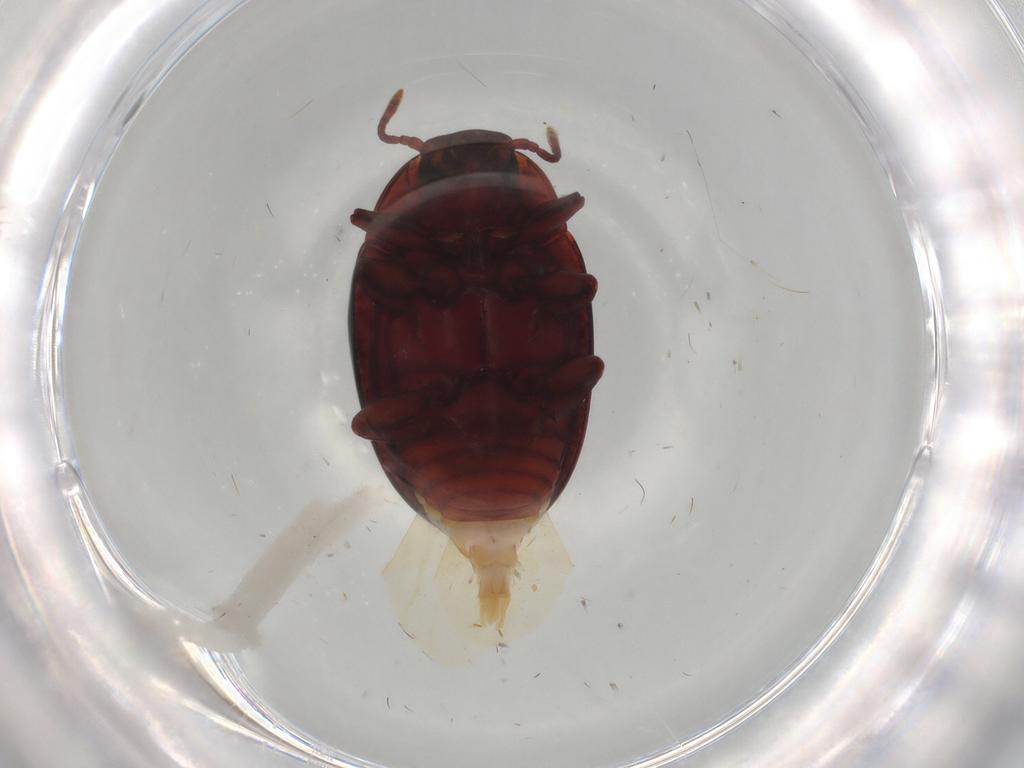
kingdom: Animalia
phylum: Arthropoda
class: Insecta
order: Coleoptera
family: Zopheridae
